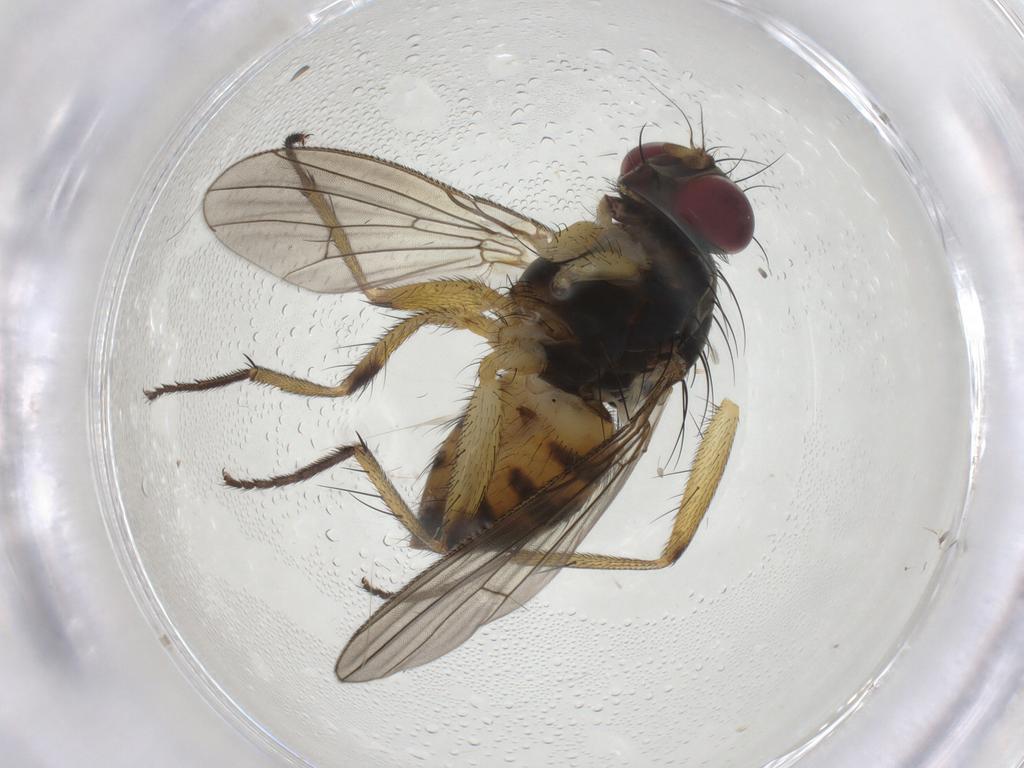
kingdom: Animalia
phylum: Arthropoda
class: Insecta
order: Diptera
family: Muscidae
